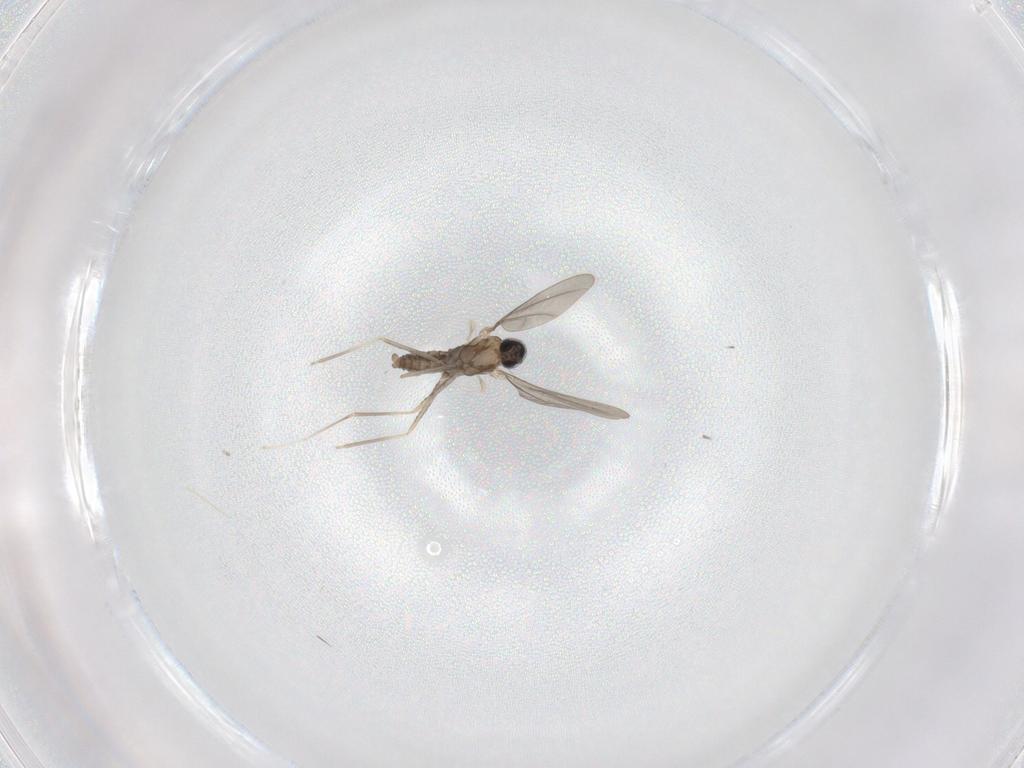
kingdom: Animalia
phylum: Arthropoda
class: Insecta
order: Diptera
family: Cecidomyiidae
